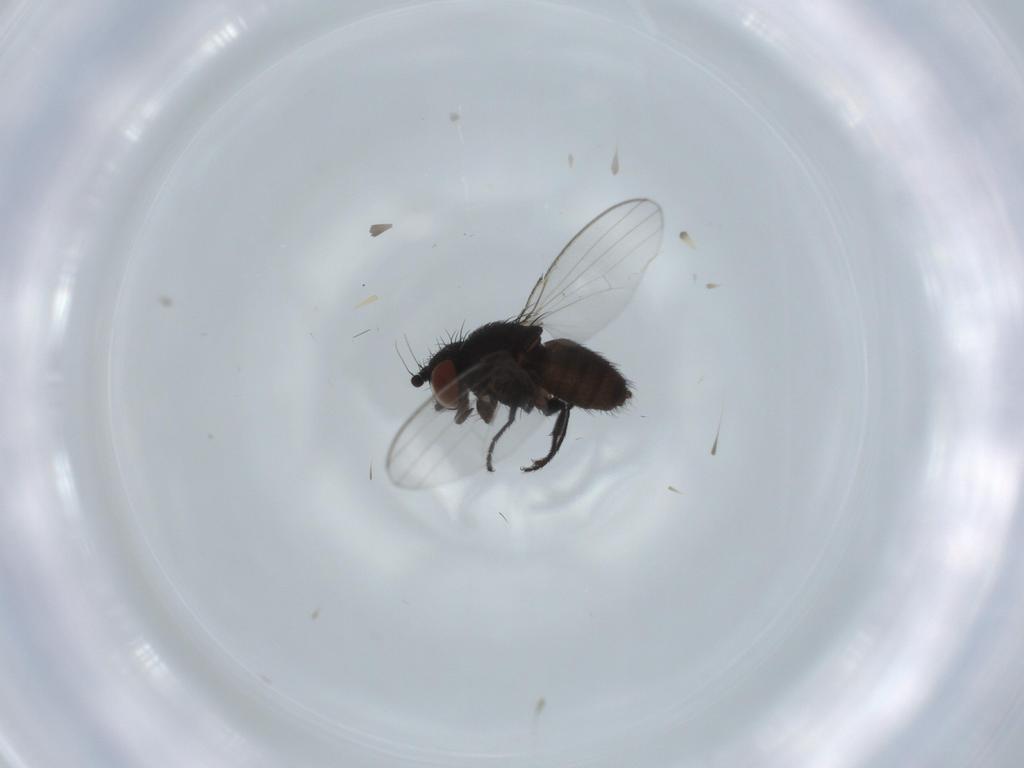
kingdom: Animalia
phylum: Arthropoda
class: Insecta
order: Diptera
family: Milichiidae
